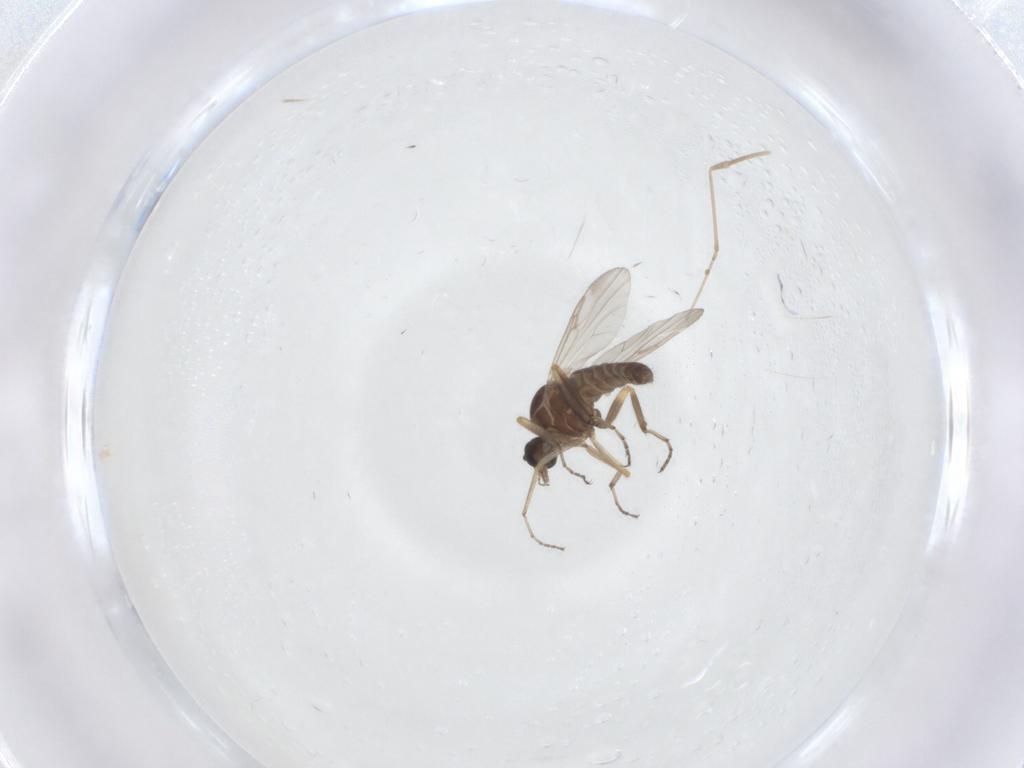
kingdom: Animalia
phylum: Arthropoda
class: Insecta
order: Diptera
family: Ceratopogonidae
